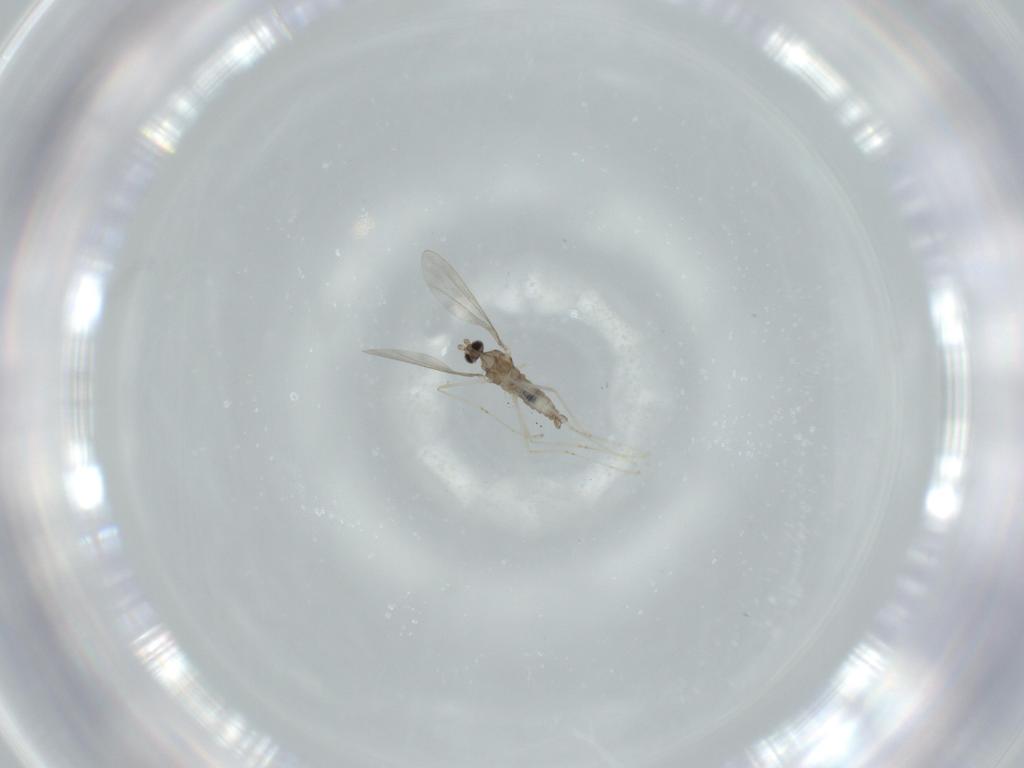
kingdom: Animalia
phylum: Arthropoda
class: Insecta
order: Diptera
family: Cecidomyiidae
